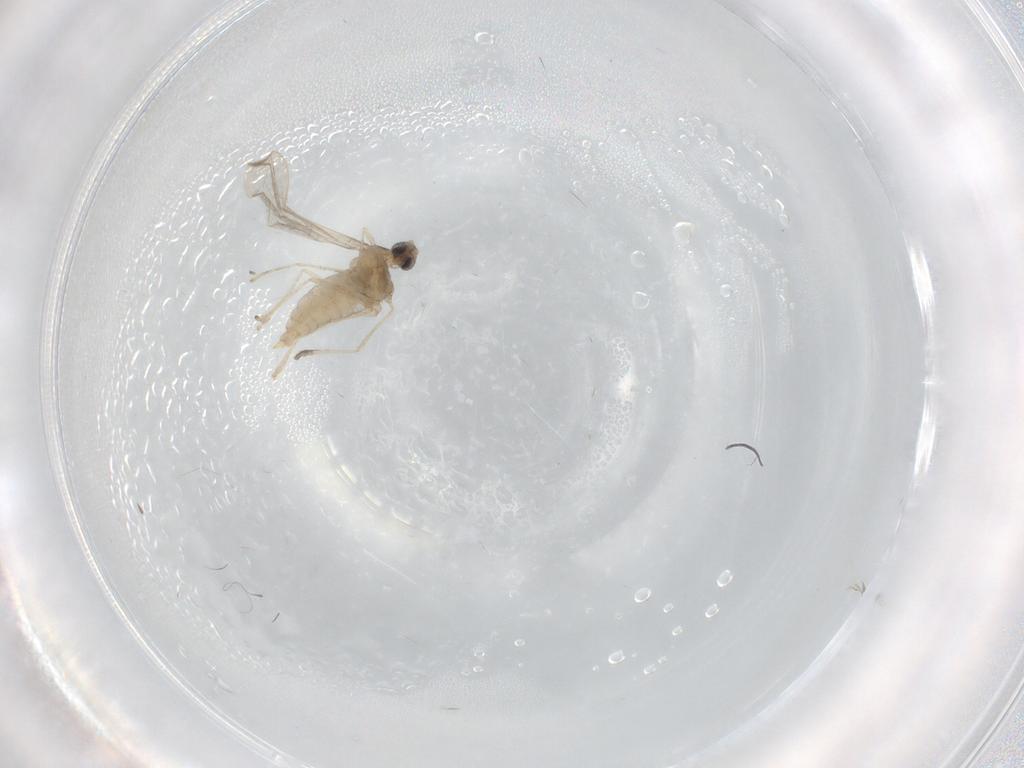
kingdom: Animalia
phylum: Arthropoda
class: Insecta
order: Diptera
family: Cecidomyiidae
